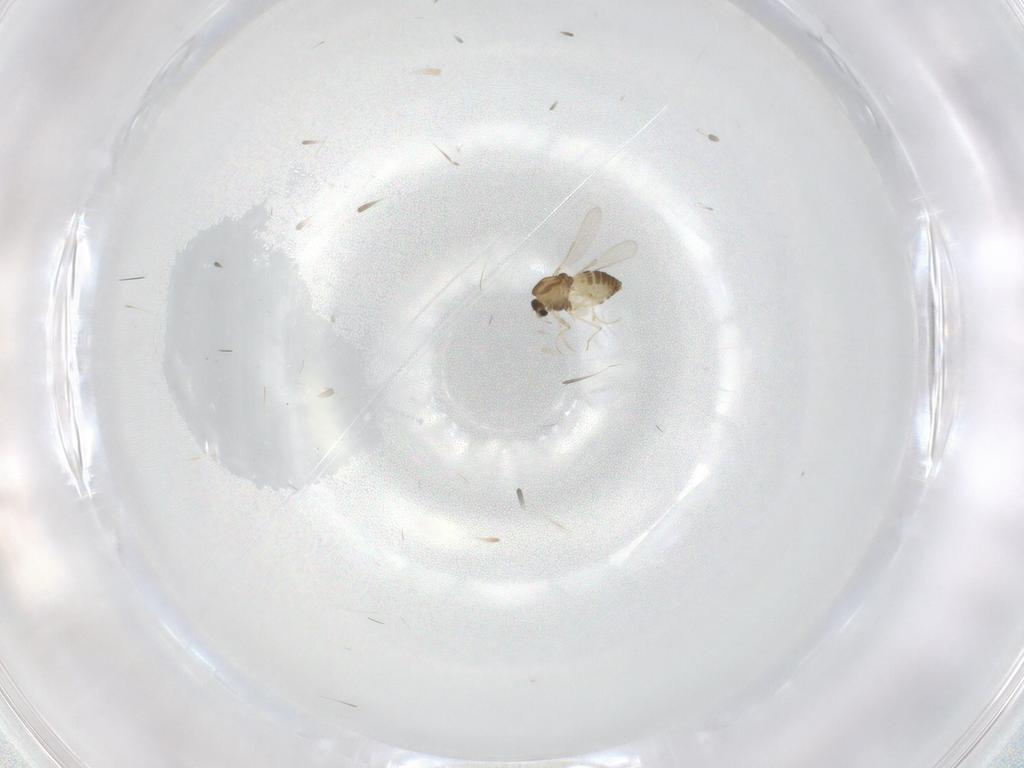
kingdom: Animalia
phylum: Arthropoda
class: Insecta
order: Diptera
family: Chironomidae
